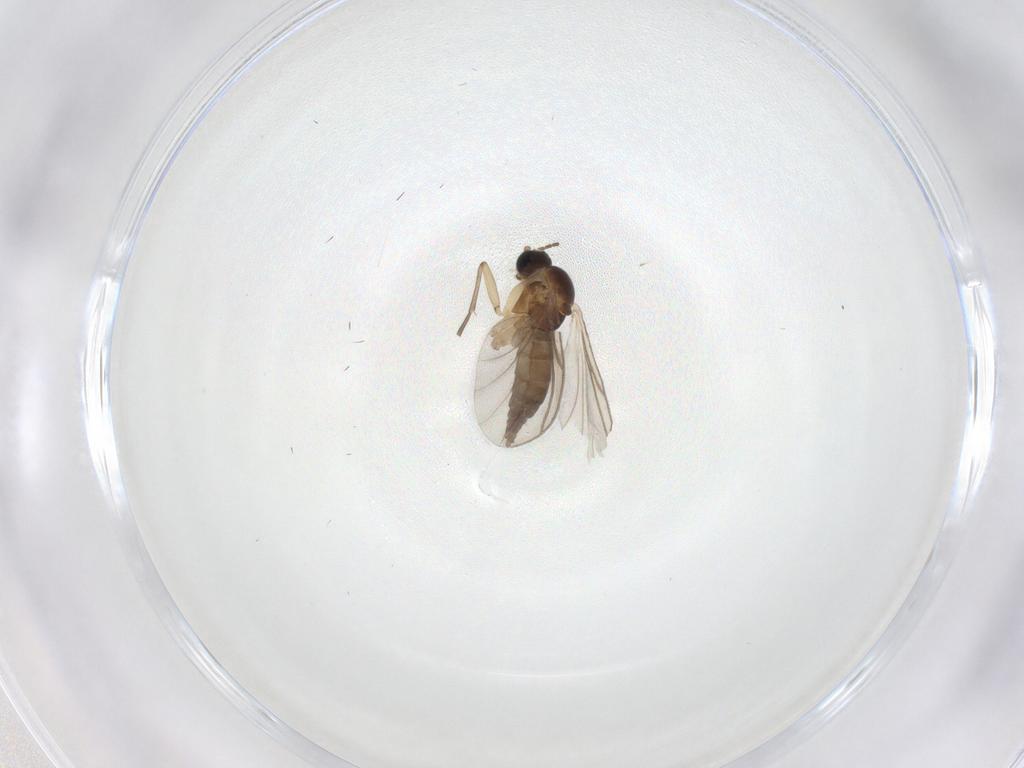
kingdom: Animalia
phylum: Arthropoda
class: Insecta
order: Diptera
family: Sciaridae
